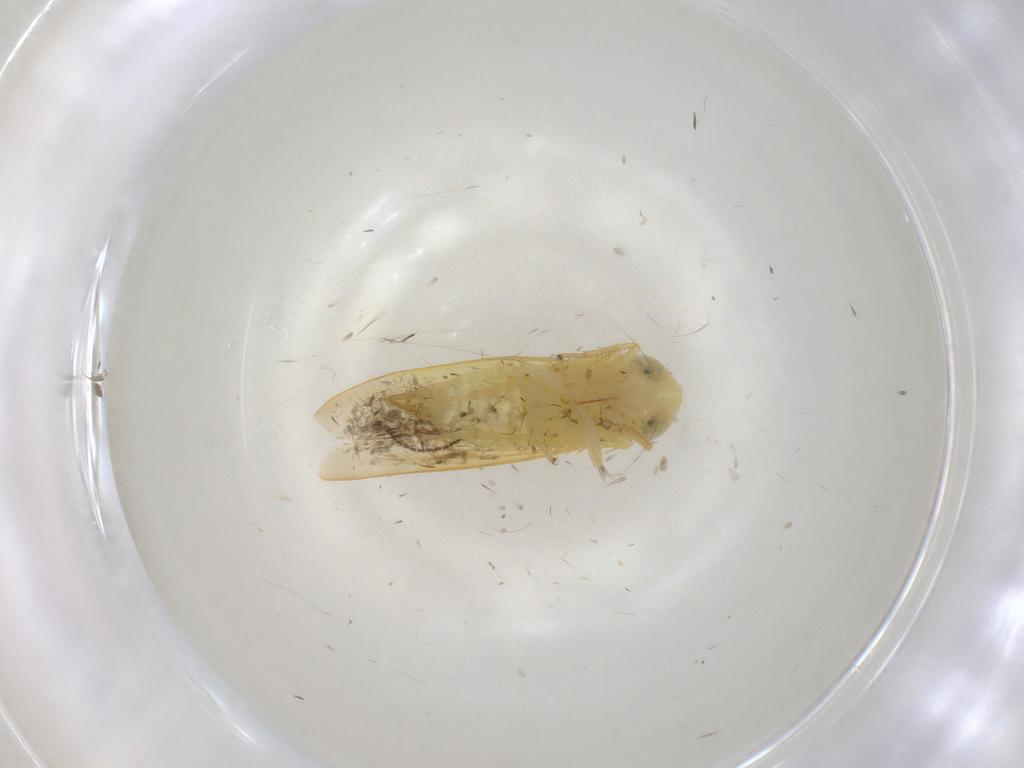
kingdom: Animalia
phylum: Arthropoda
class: Insecta
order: Hemiptera
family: Cicadellidae
